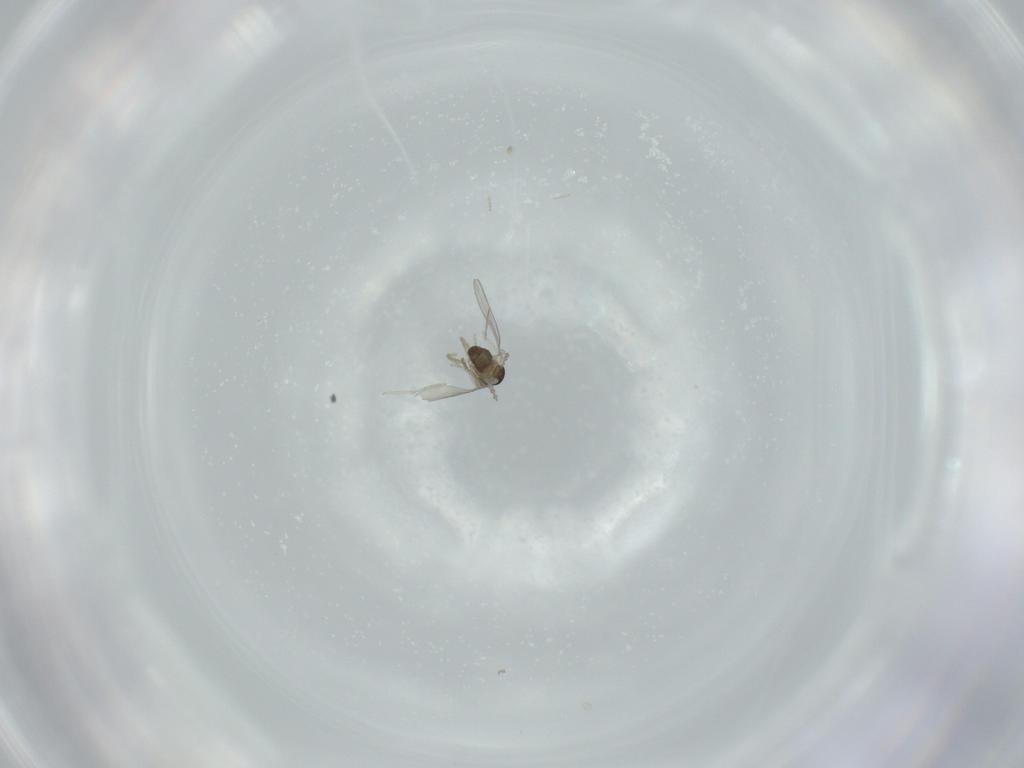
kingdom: Animalia
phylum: Arthropoda
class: Insecta
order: Diptera
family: Cecidomyiidae
